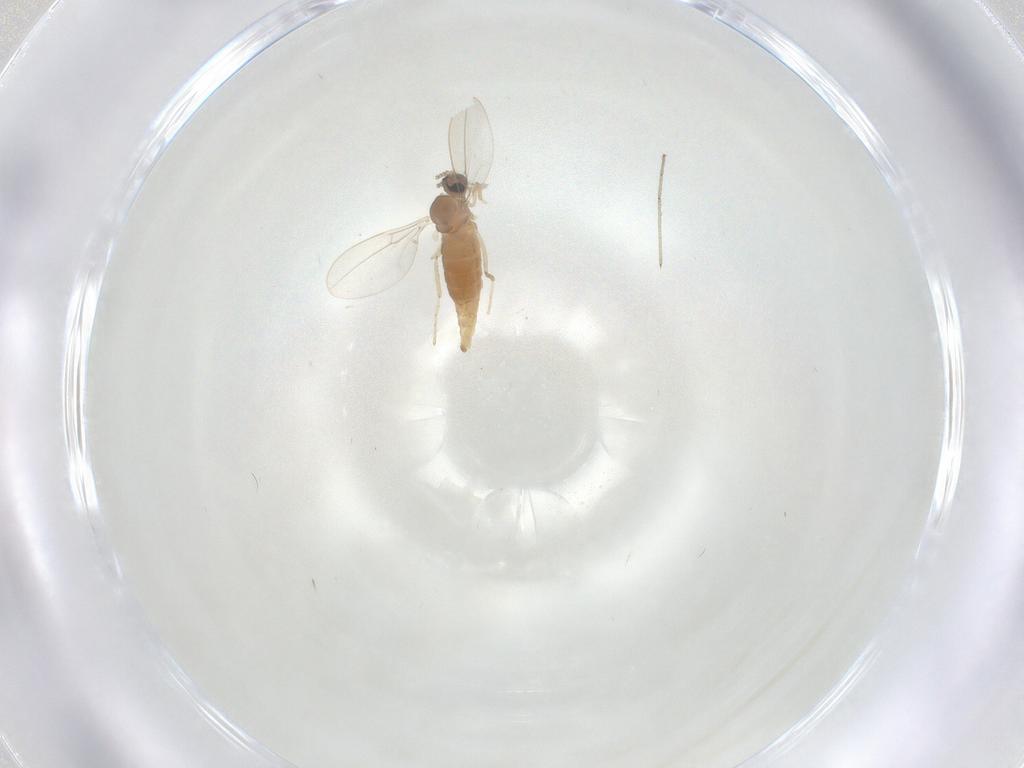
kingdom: Animalia
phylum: Arthropoda
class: Insecta
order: Diptera
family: Cecidomyiidae
